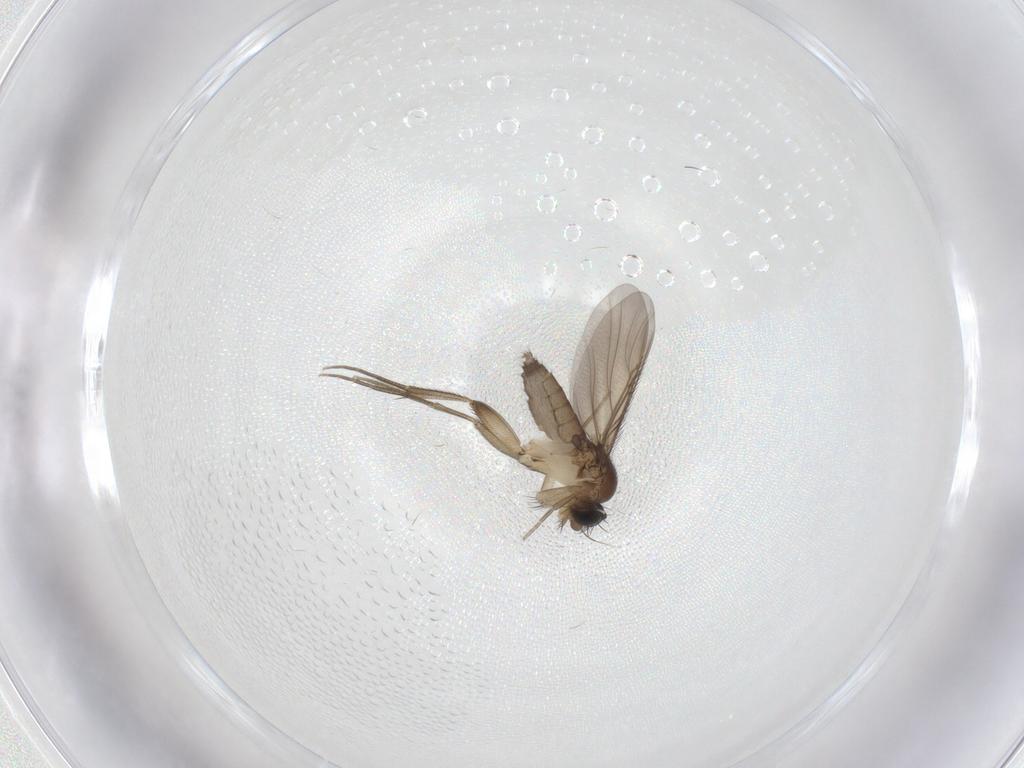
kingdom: Animalia
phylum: Arthropoda
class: Insecta
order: Diptera
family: Phoridae
